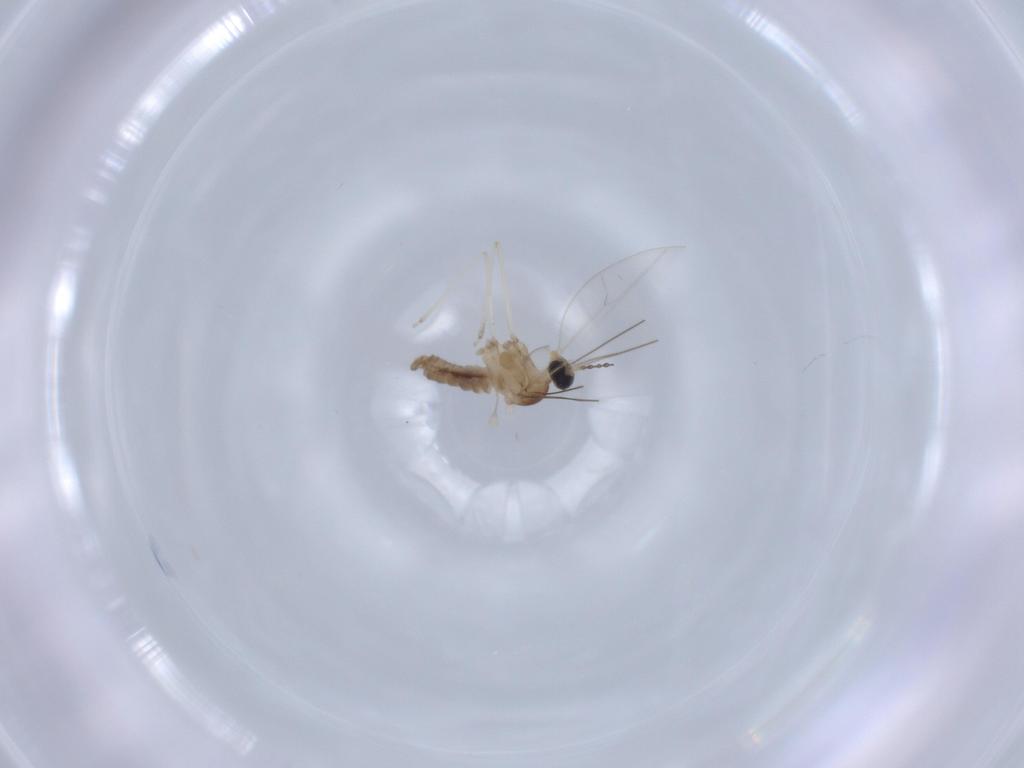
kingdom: Animalia
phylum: Arthropoda
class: Insecta
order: Diptera
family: Cecidomyiidae
